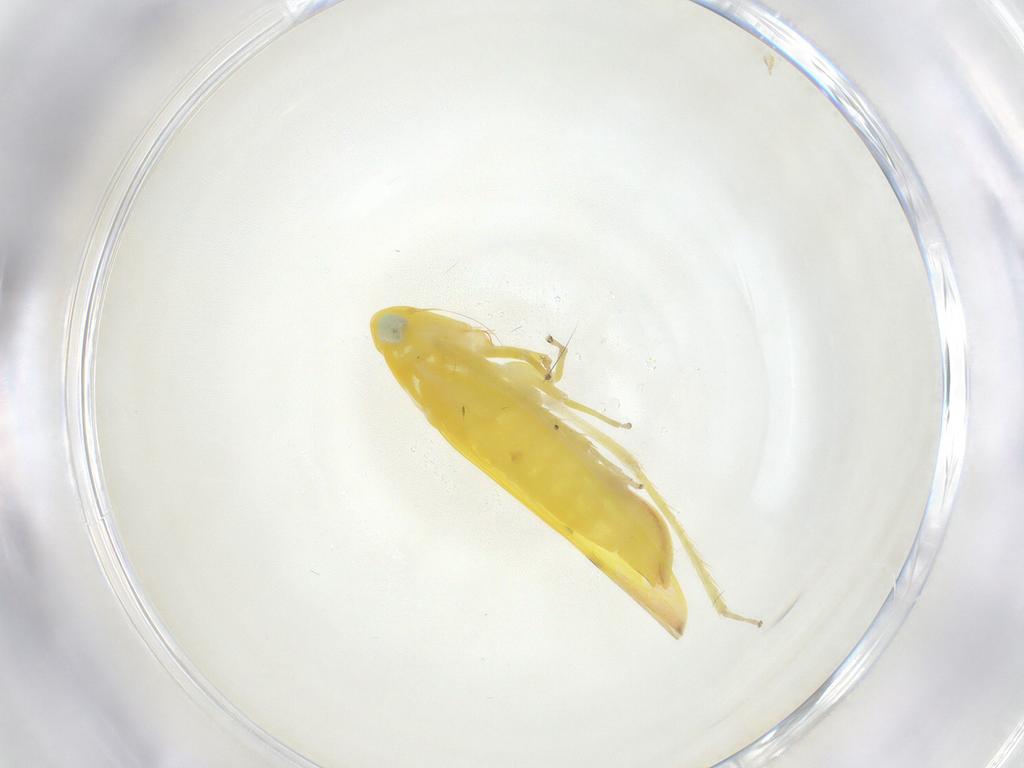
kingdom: Animalia
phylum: Arthropoda
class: Insecta
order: Hemiptera
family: Cicadellidae
